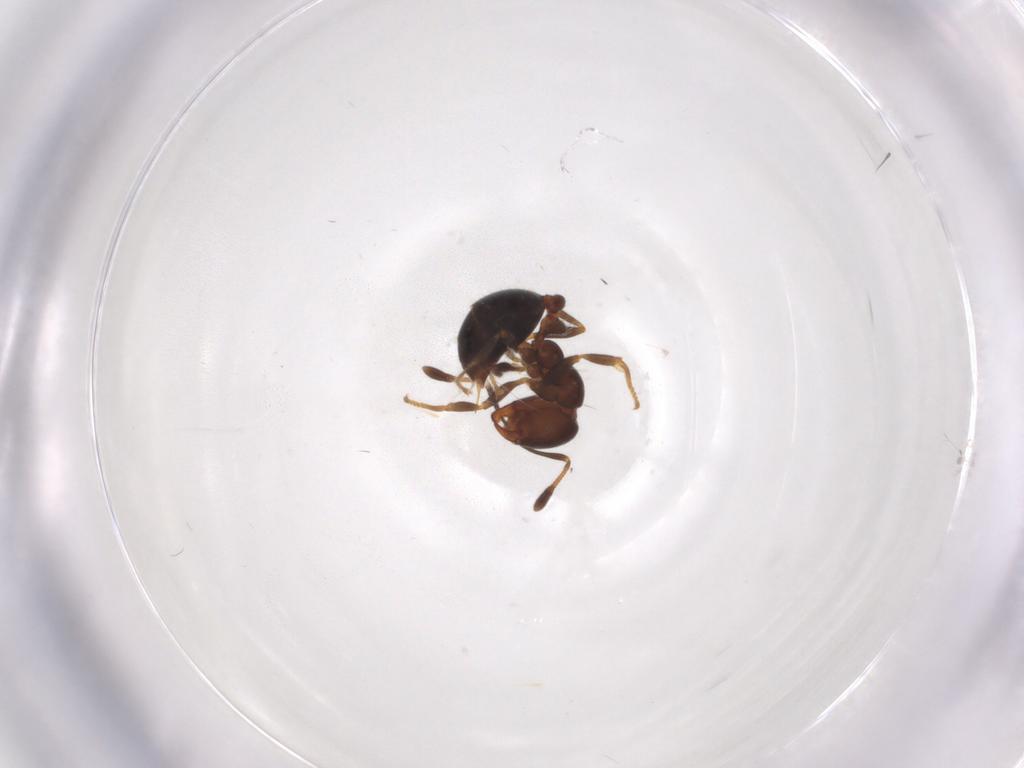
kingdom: Animalia
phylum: Arthropoda
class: Insecta
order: Hymenoptera
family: Formicidae
